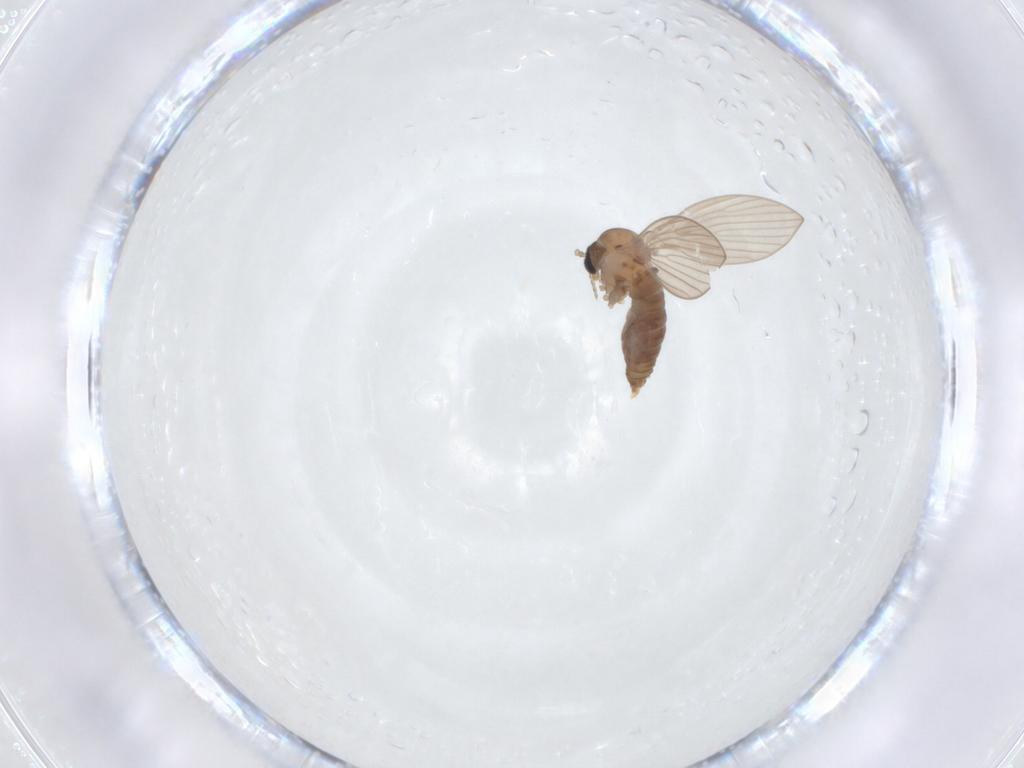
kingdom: Animalia
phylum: Arthropoda
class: Insecta
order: Diptera
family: Psychodidae
